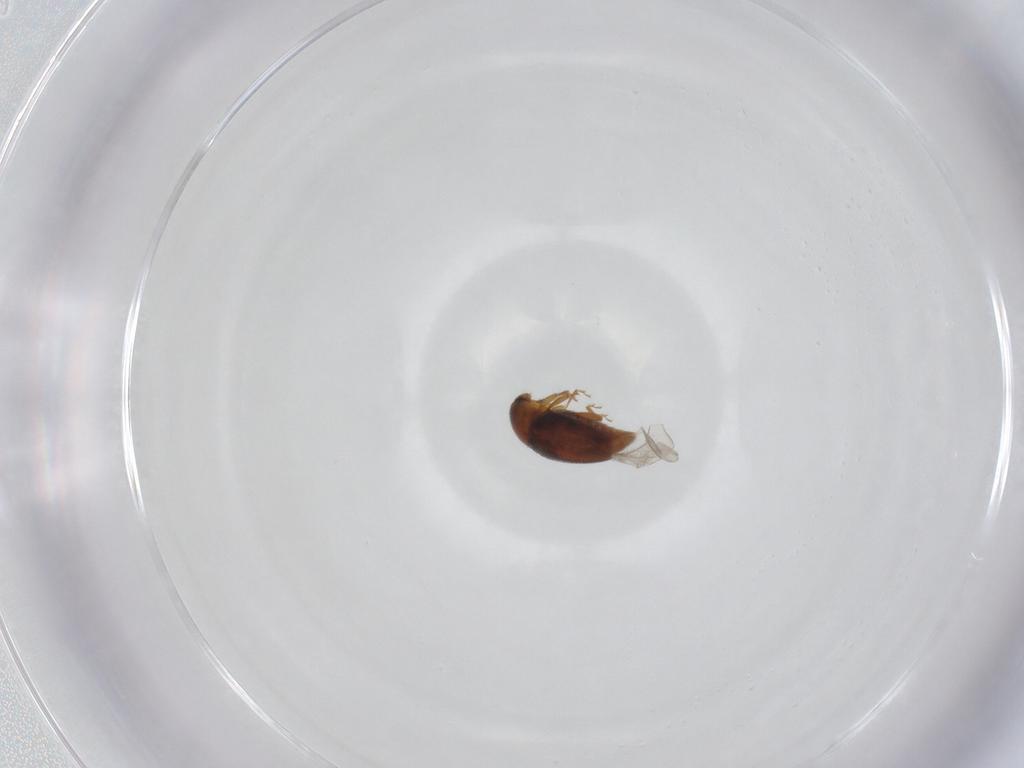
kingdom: Animalia
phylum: Arthropoda
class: Insecta
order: Coleoptera
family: Corylophidae
